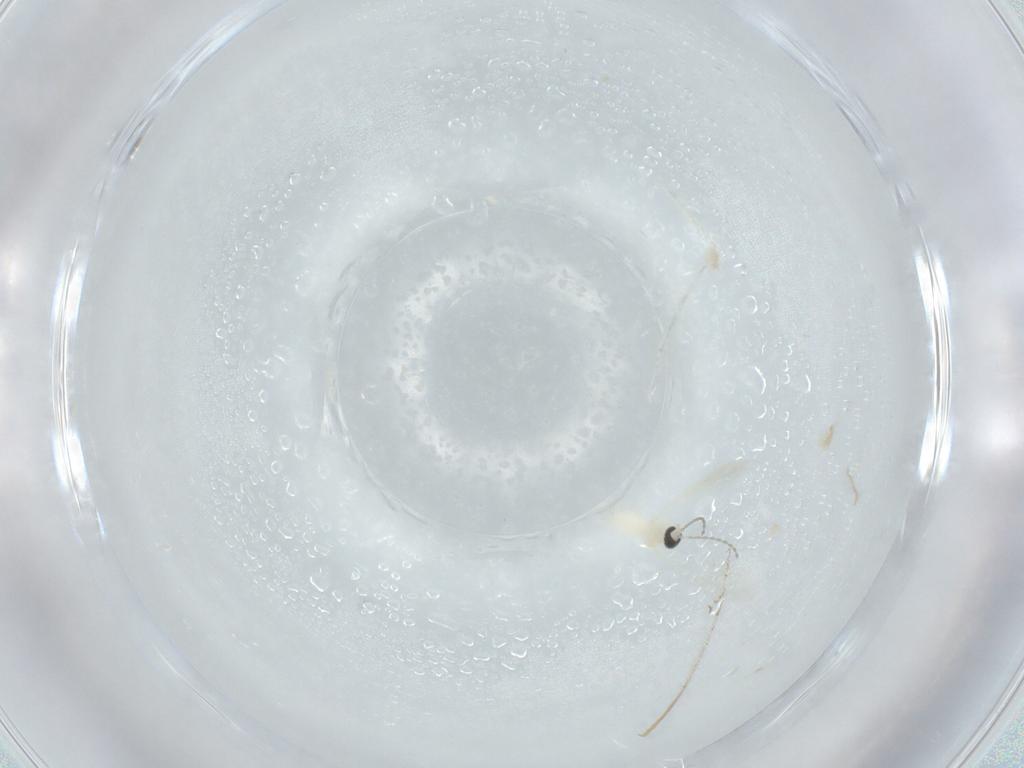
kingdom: Animalia
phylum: Arthropoda
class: Insecta
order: Diptera
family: Cecidomyiidae
